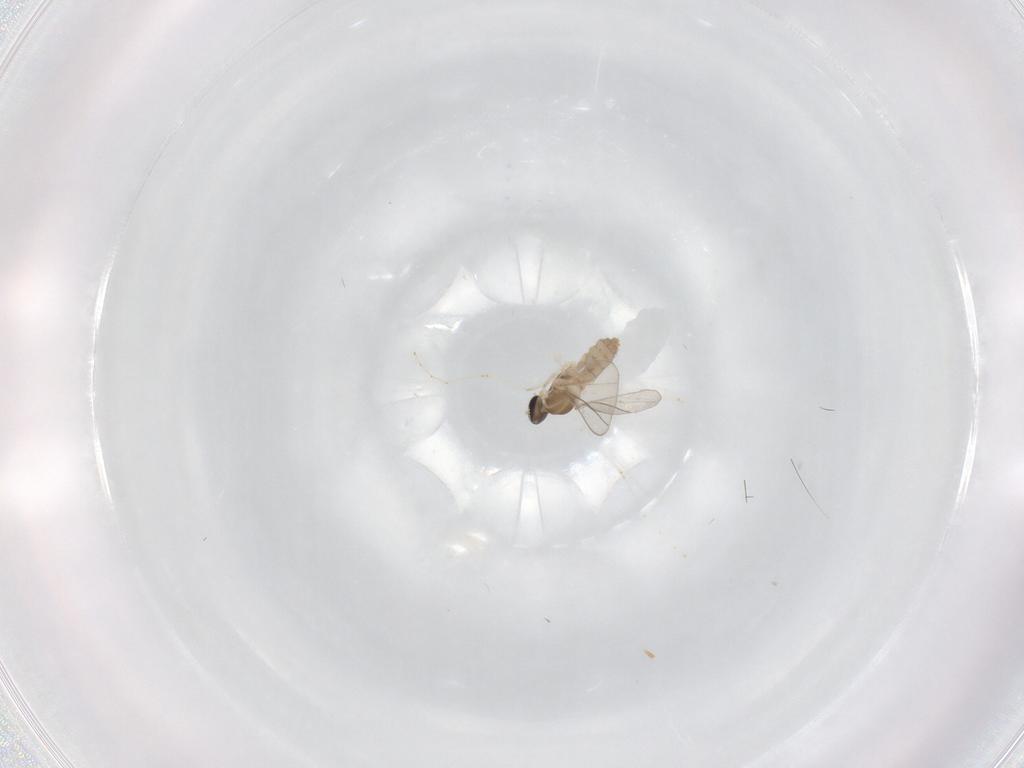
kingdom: Animalia
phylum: Arthropoda
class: Insecta
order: Diptera
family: Cecidomyiidae
